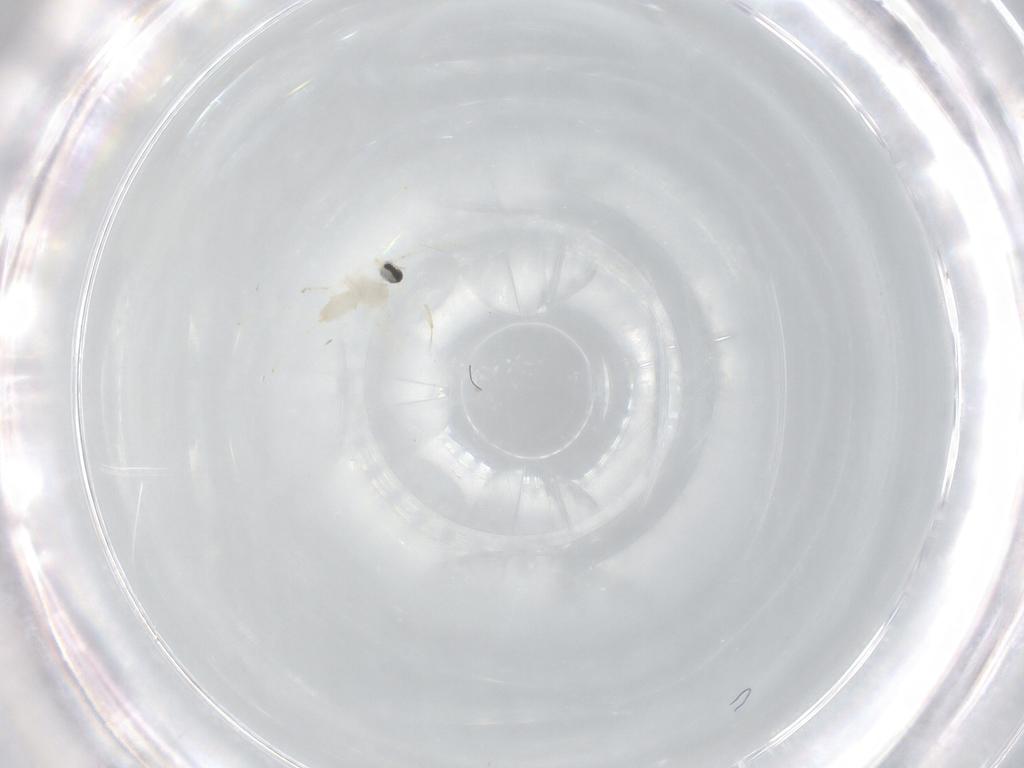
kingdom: Animalia
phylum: Arthropoda
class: Insecta
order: Diptera
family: Cecidomyiidae
